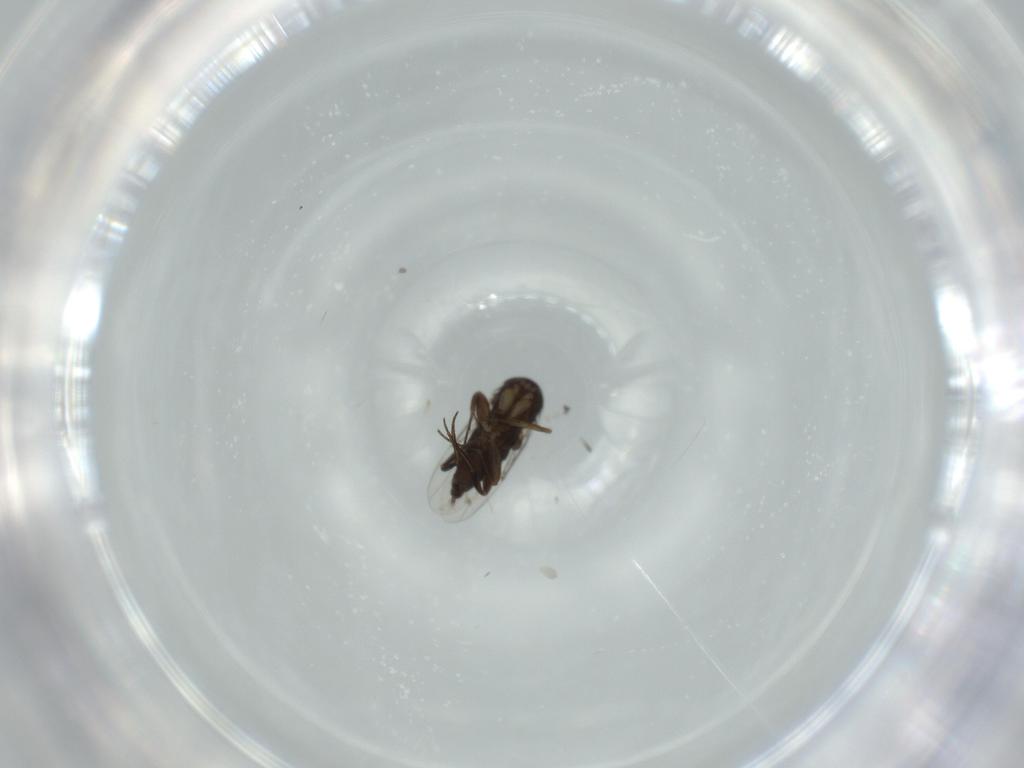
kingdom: Animalia
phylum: Arthropoda
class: Insecta
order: Diptera
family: Phoridae
